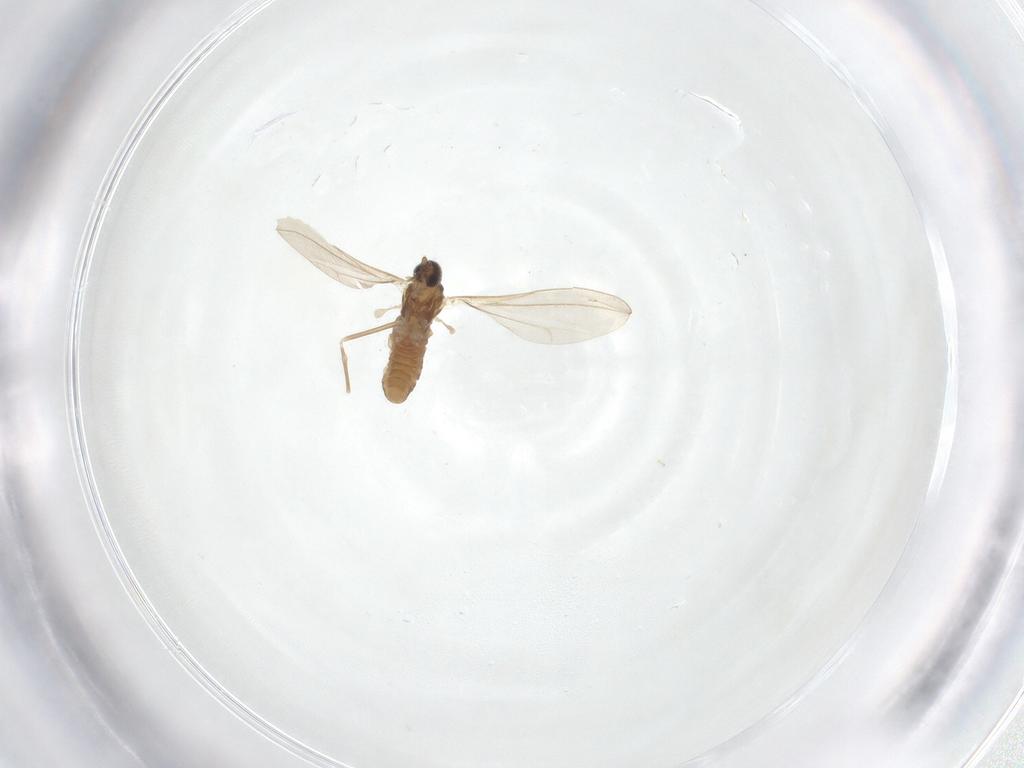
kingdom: Animalia
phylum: Arthropoda
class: Insecta
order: Diptera
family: Cecidomyiidae
